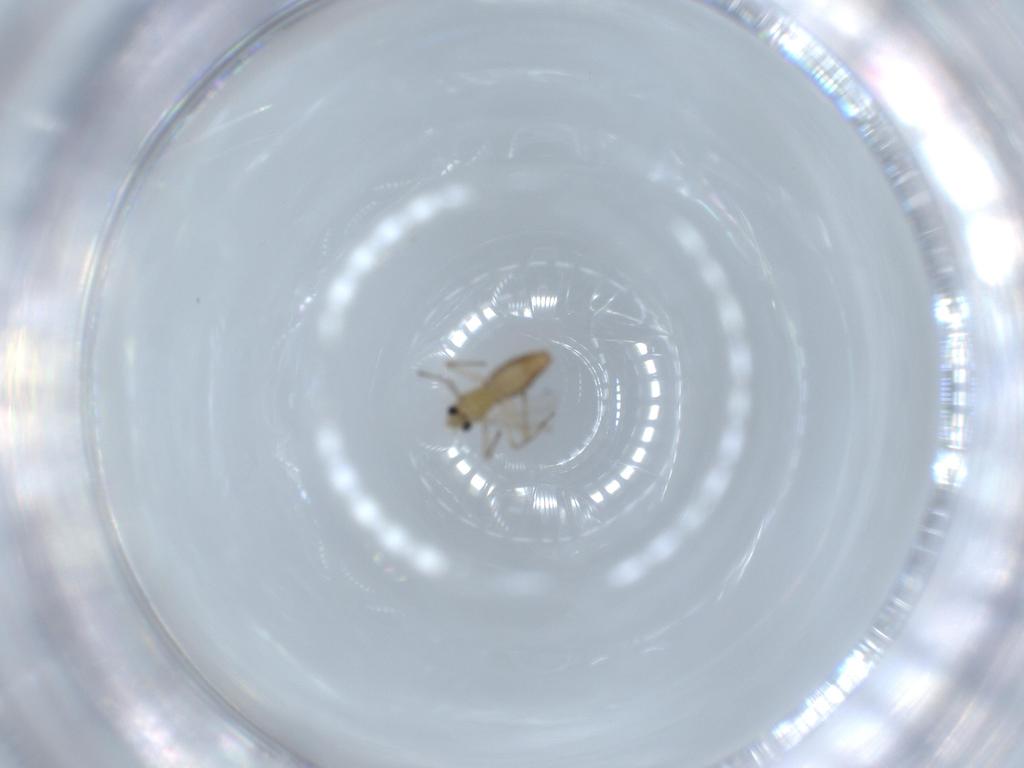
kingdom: Animalia
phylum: Arthropoda
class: Insecta
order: Diptera
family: Chironomidae
